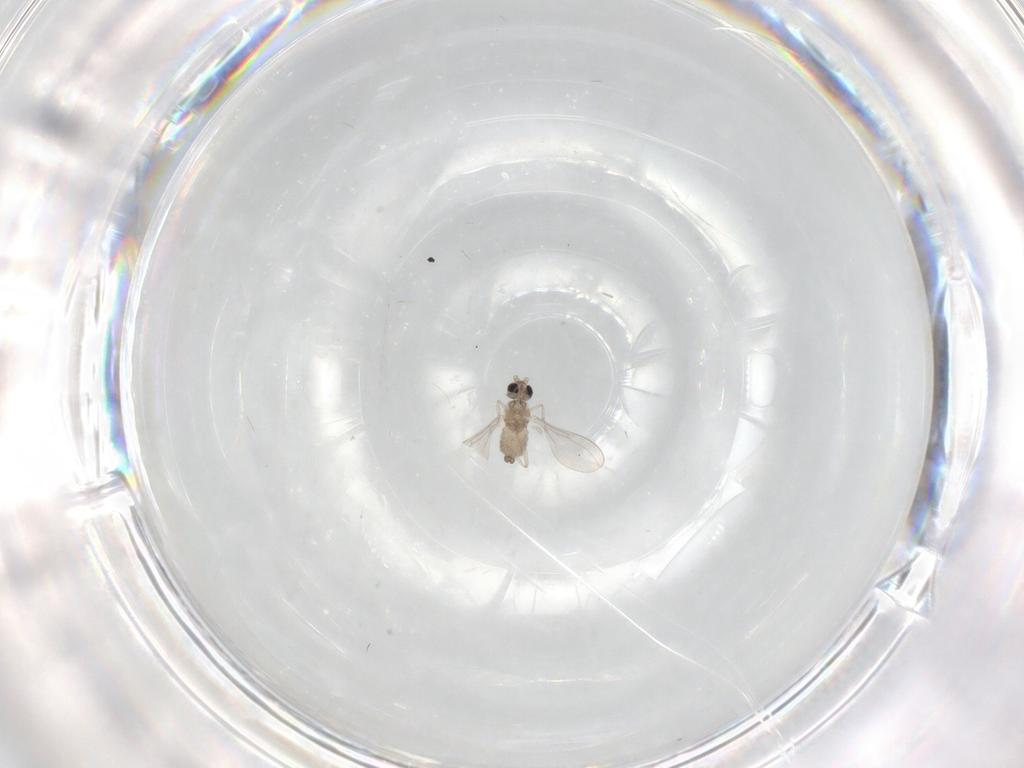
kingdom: Animalia
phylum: Arthropoda
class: Insecta
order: Diptera
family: Cecidomyiidae
